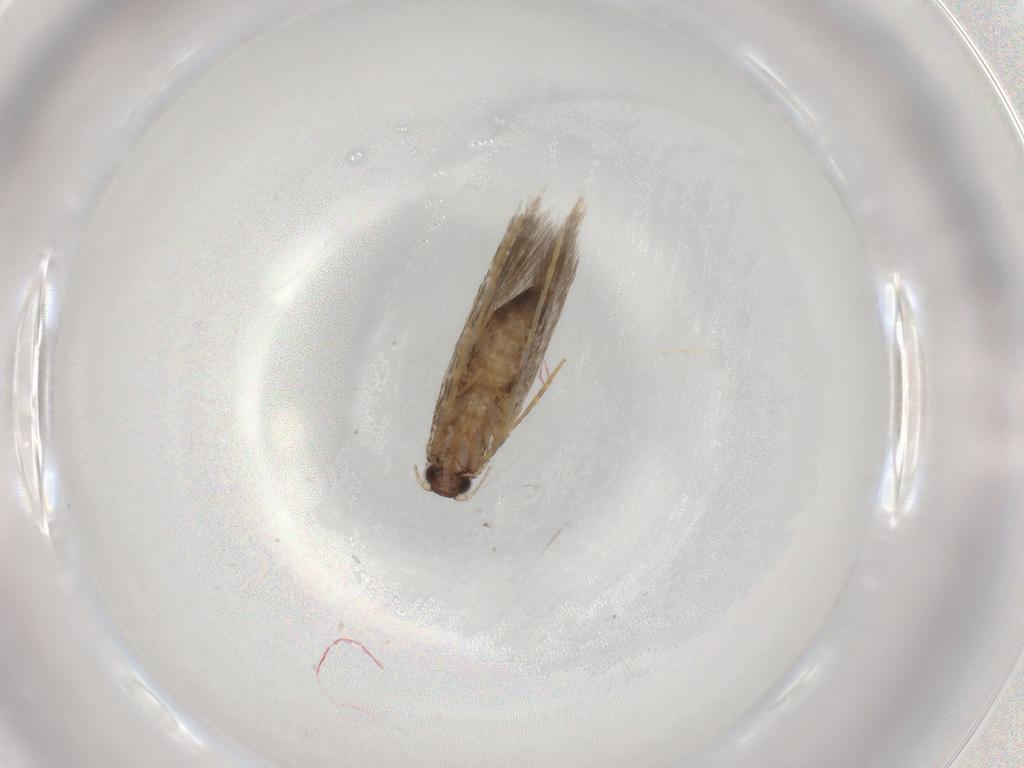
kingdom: Animalia
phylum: Arthropoda
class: Insecta
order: Lepidoptera
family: Tineidae
